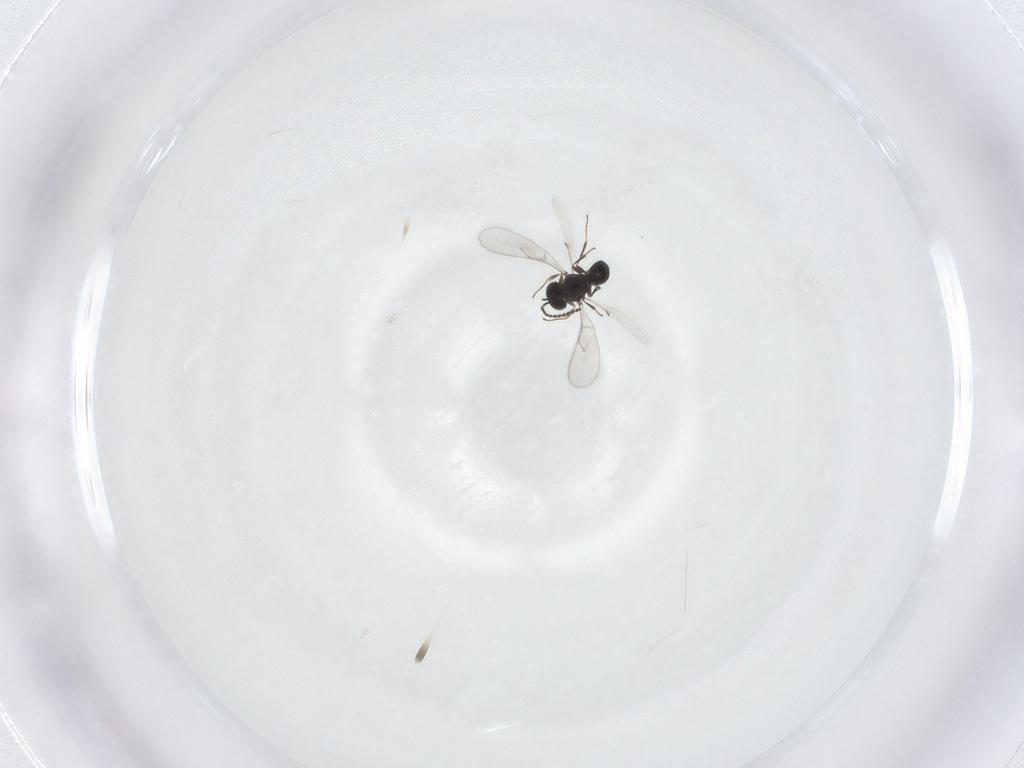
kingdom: Animalia
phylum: Arthropoda
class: Insecta
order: Hymenoptera
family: Scelionidae
